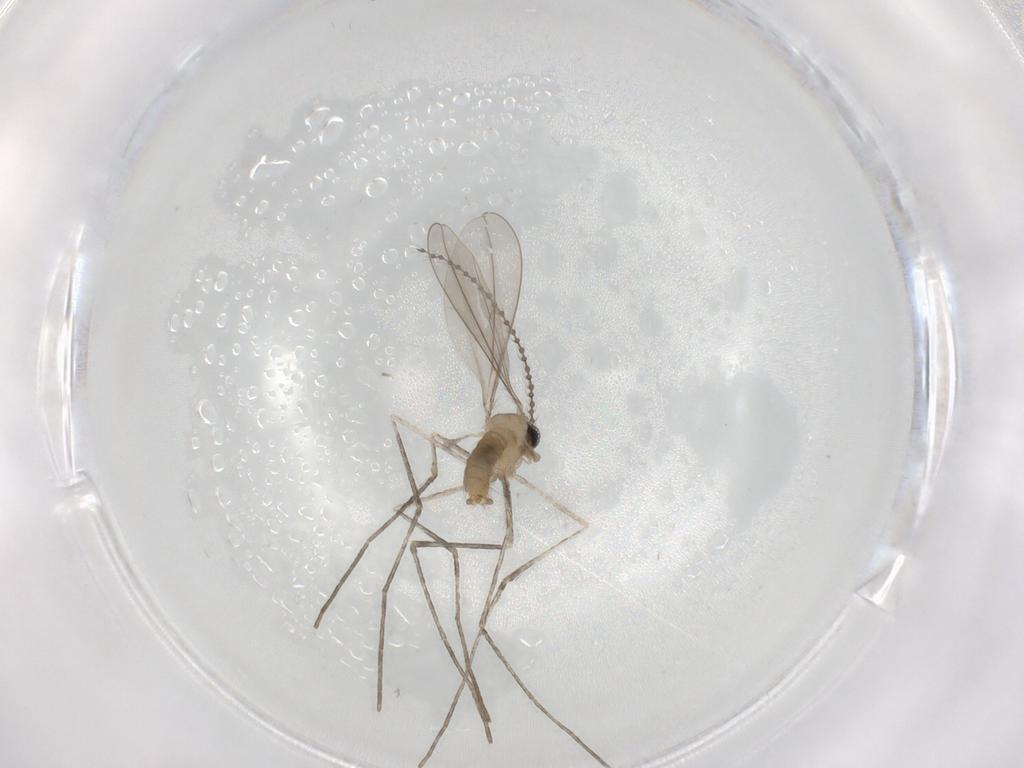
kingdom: Animalia
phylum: Arthropoda
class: Insecta
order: Diptera
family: Cecidomyiidae
